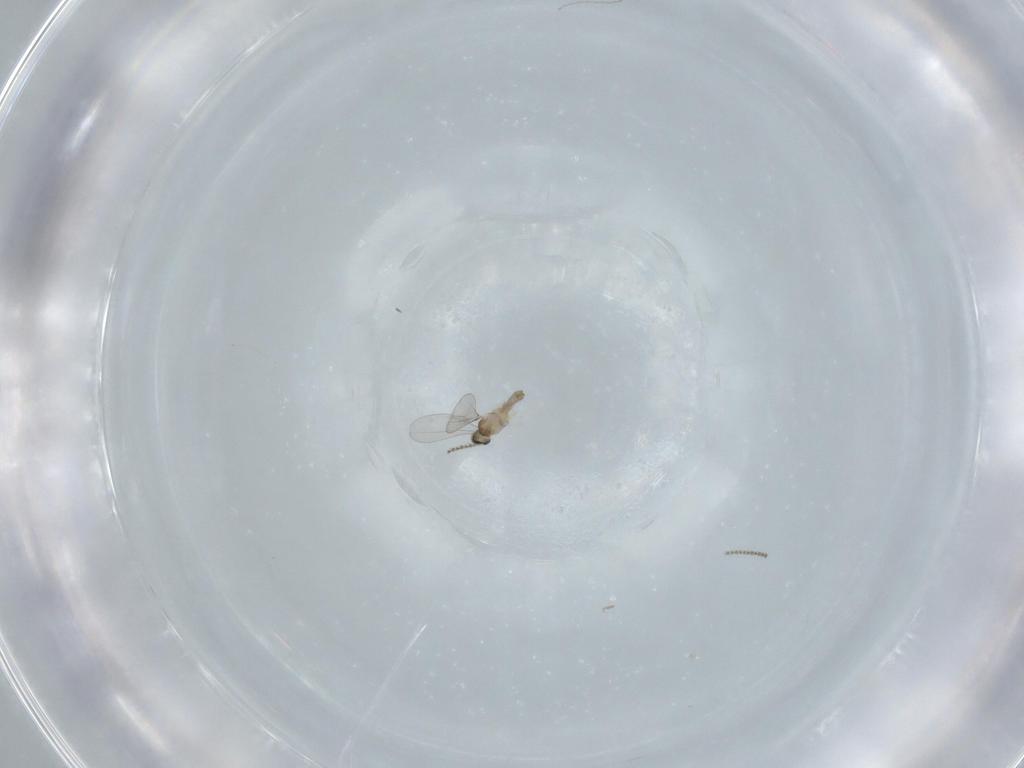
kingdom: Animalia
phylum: Arthropoda
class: Insecta
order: Diptera
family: Cecidomyiidae
